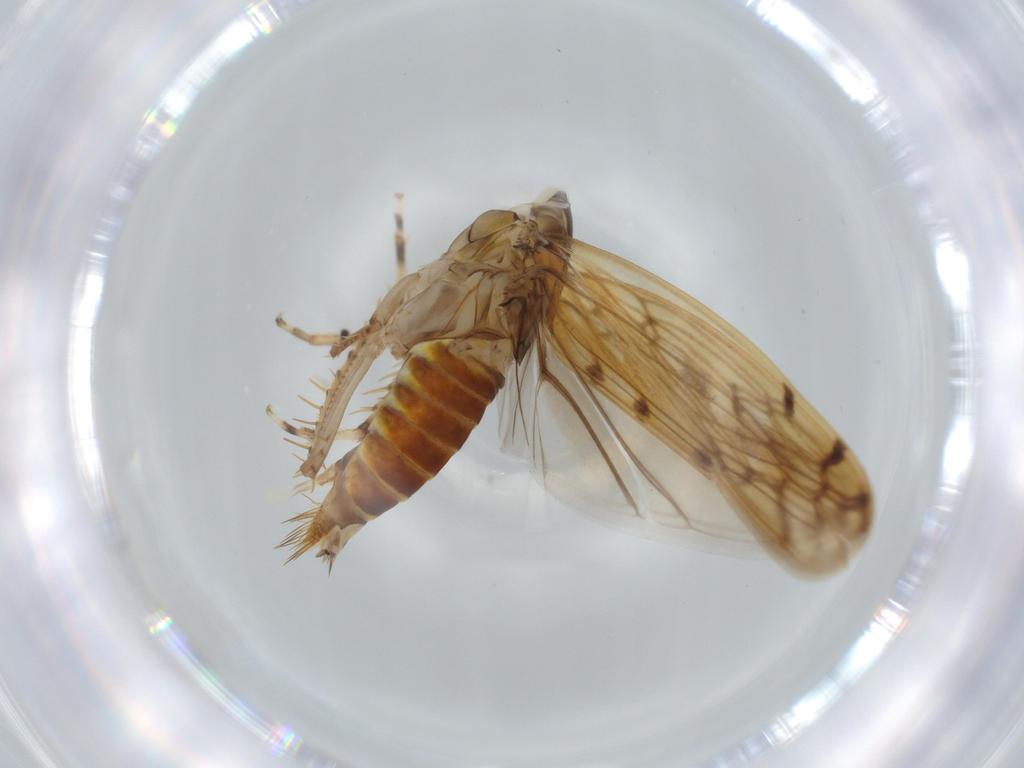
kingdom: Animalia
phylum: Arthropoda
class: Insecta
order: Hemiptera
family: Cicadellidae
